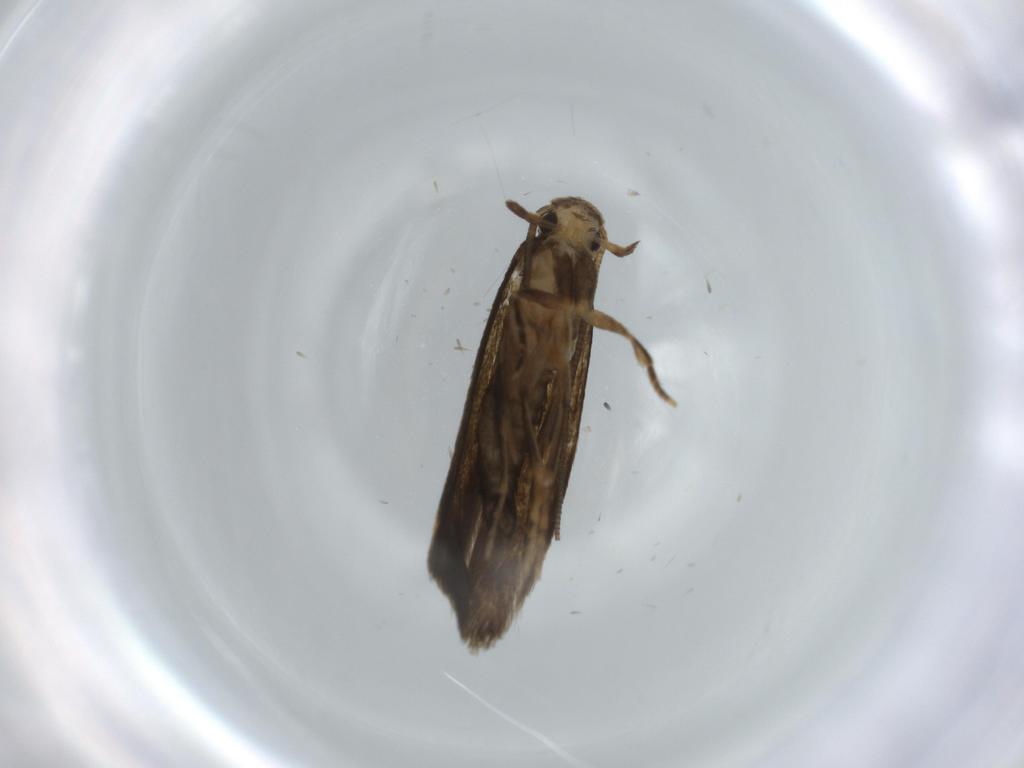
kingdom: Animalia
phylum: Arthropoda
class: Insecta
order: Lepidoptera
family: Tineidae
